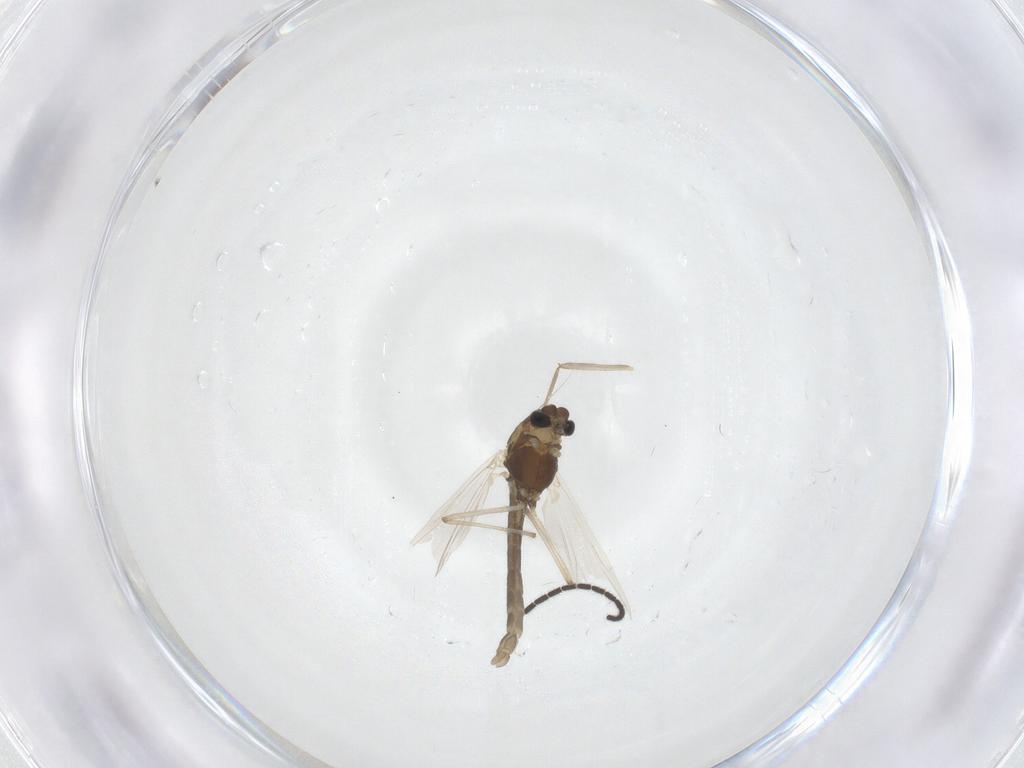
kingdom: Animalia
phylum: Arthropoda
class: Insecta
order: Diptera
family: Chironomidae
